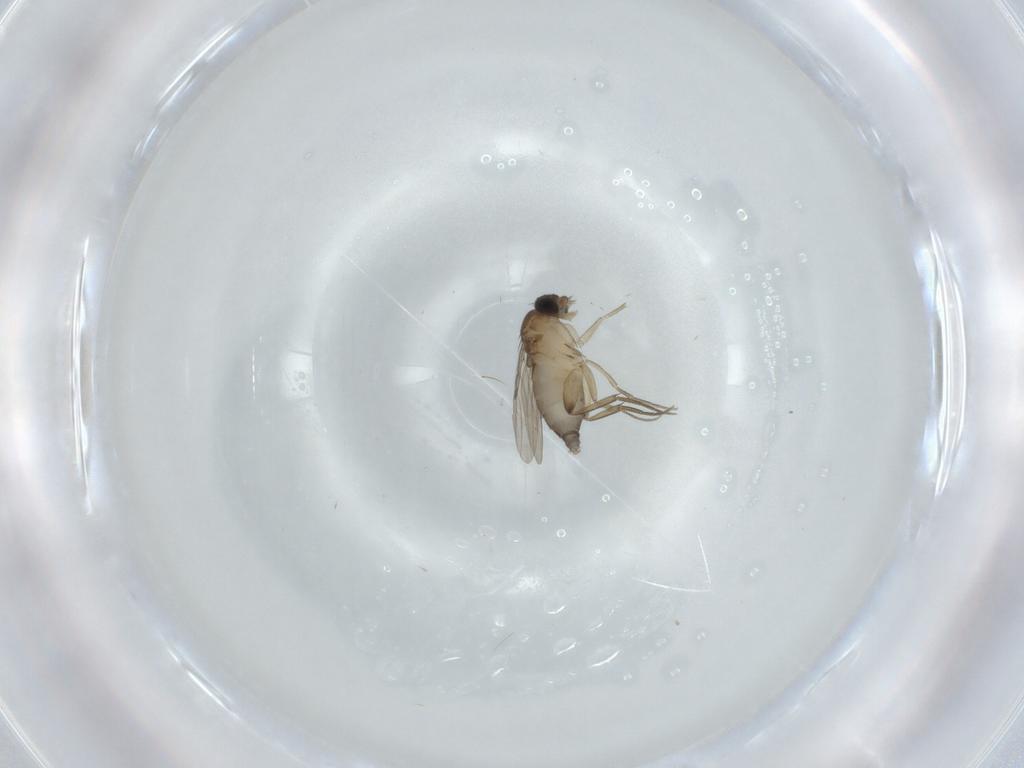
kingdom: Animalia
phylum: Arthropoda
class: Insecta
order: Diptera
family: Phoridae
